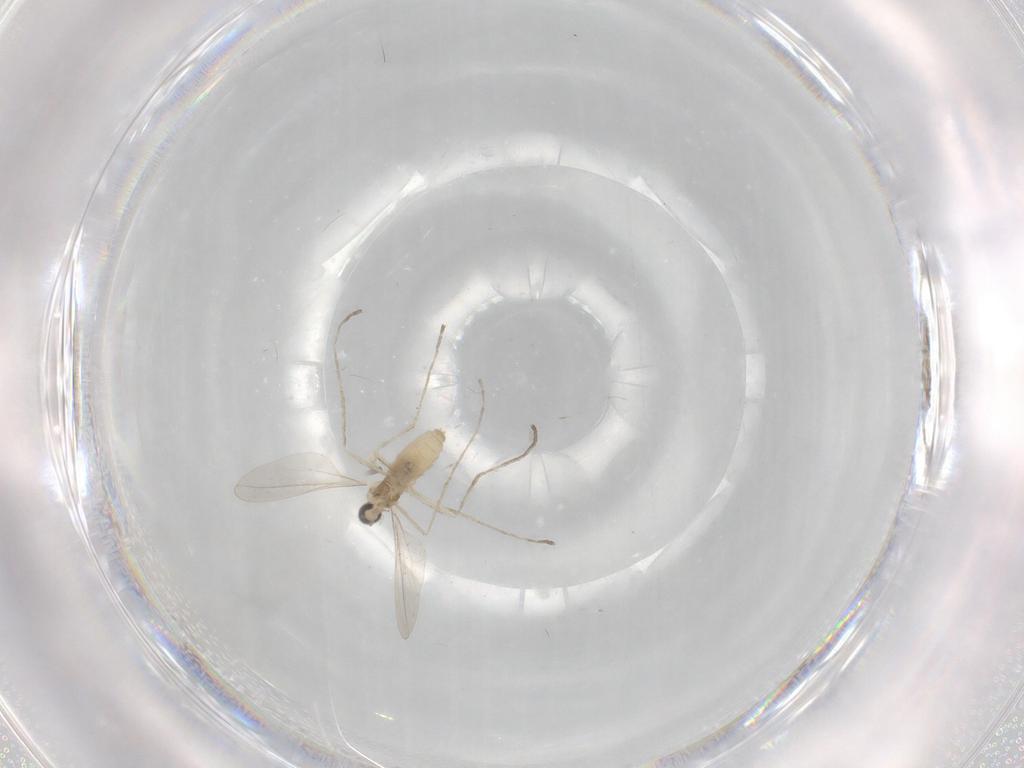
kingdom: Animalia
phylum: Arthropoda
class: Insecta
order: Diptera
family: Cecidomyiidae
